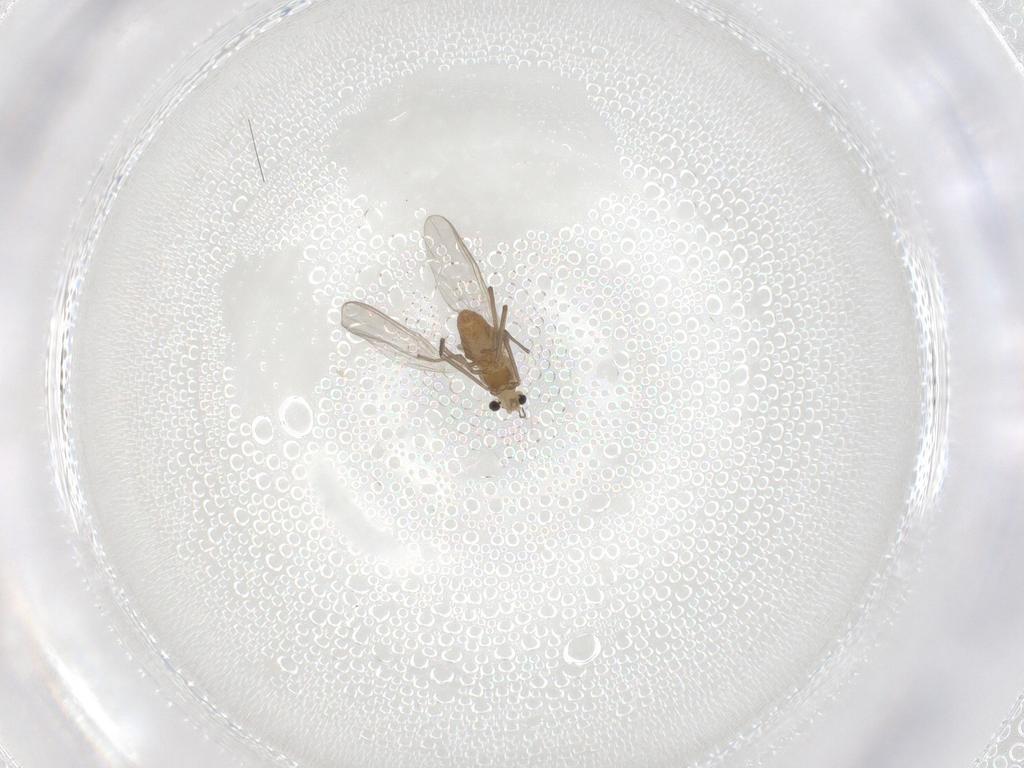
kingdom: Animalia
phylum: Arthropoda
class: Insecta
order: Diptera
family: Chironomidae
